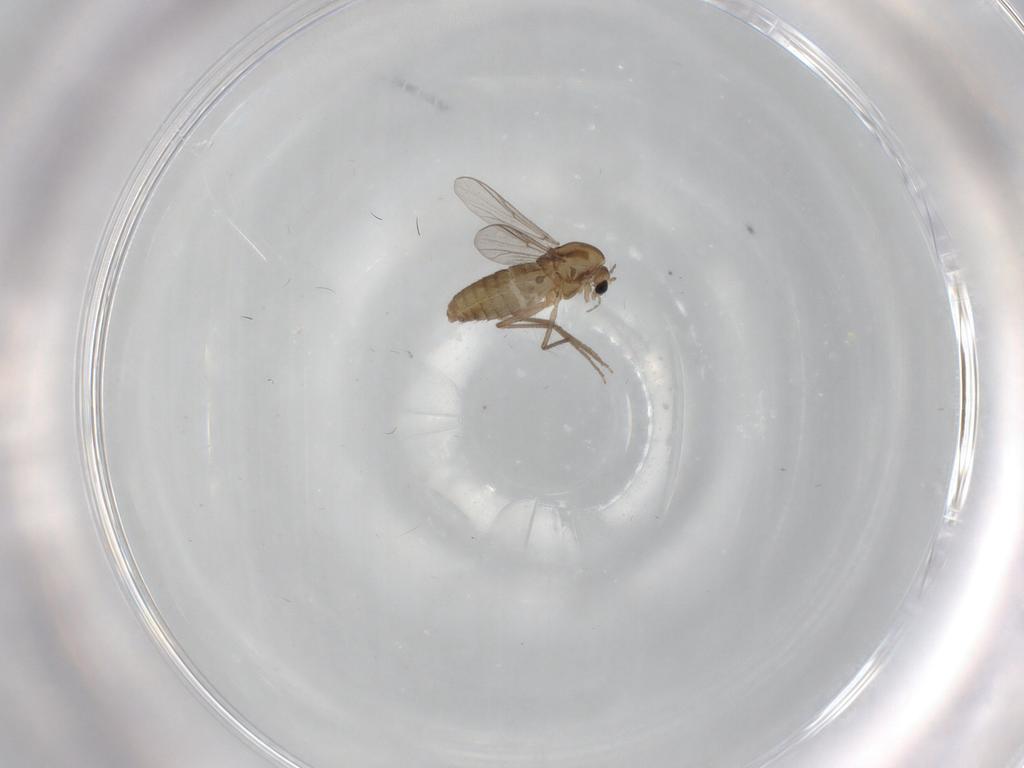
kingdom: Animalia
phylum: Arthropoda
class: Insecta
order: Diptera
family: Chironomidae
